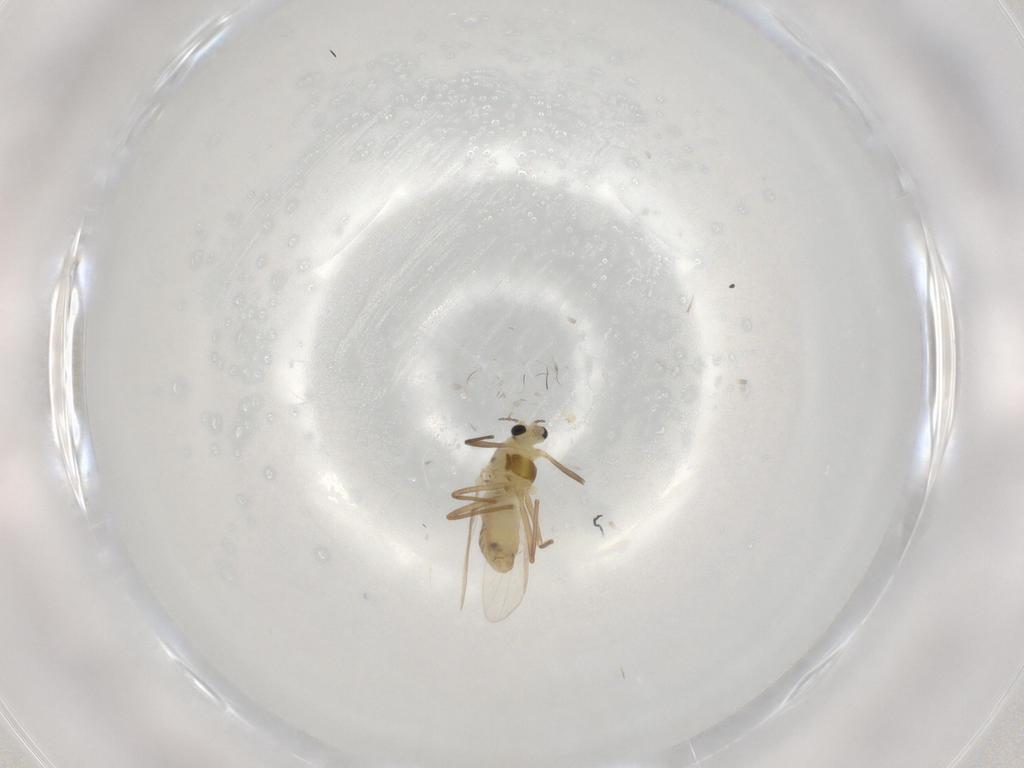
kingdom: Animalia
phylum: Arthropoda
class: Insecta
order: Diptera
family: Chironomidae
